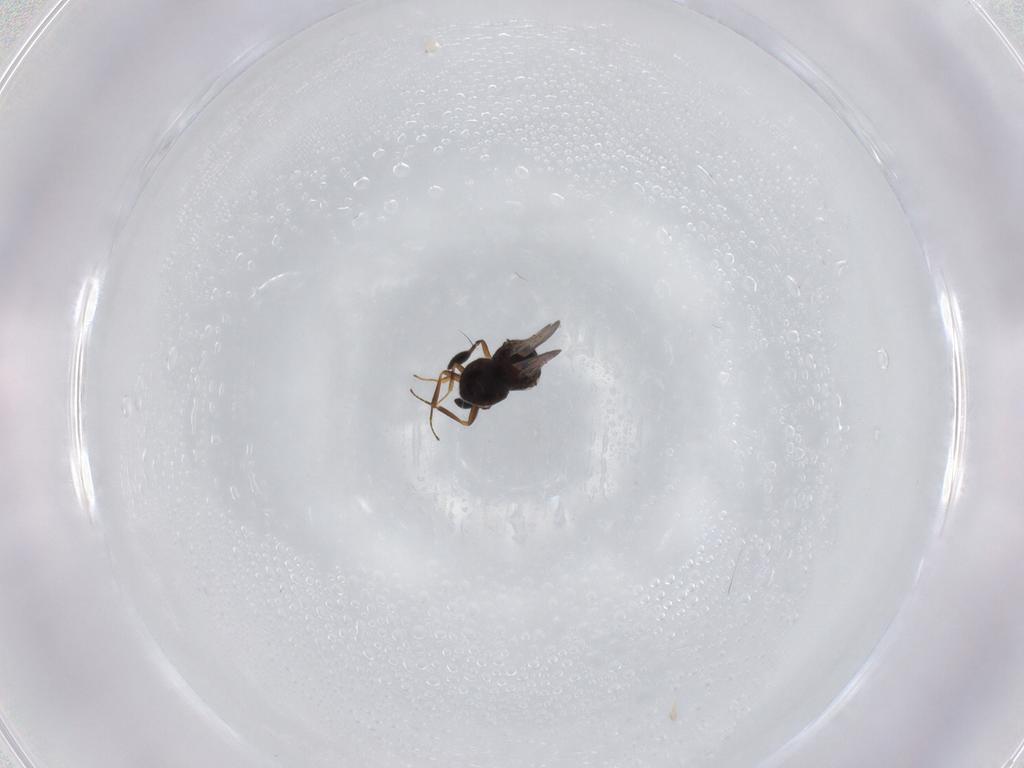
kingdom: Animalia
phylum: Arthropoda
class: Insecta
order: Hymenoptera
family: Scelionidae
